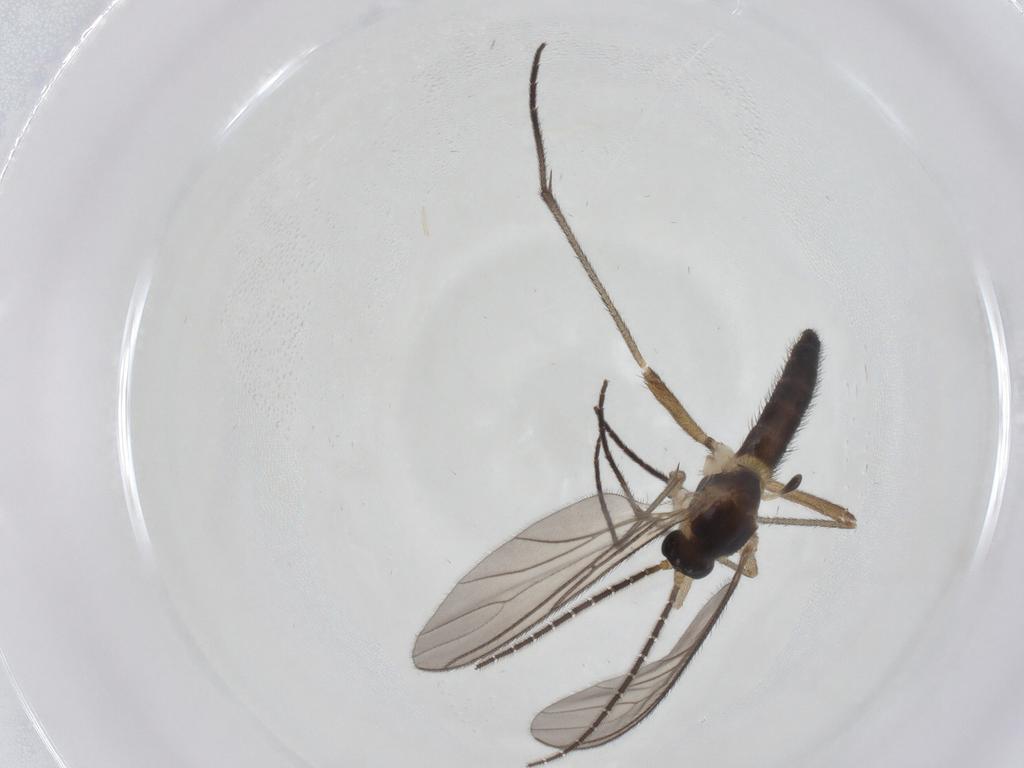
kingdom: Animalia
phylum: Arthropoda
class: Insecta
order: Diptera
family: Sciaridae
